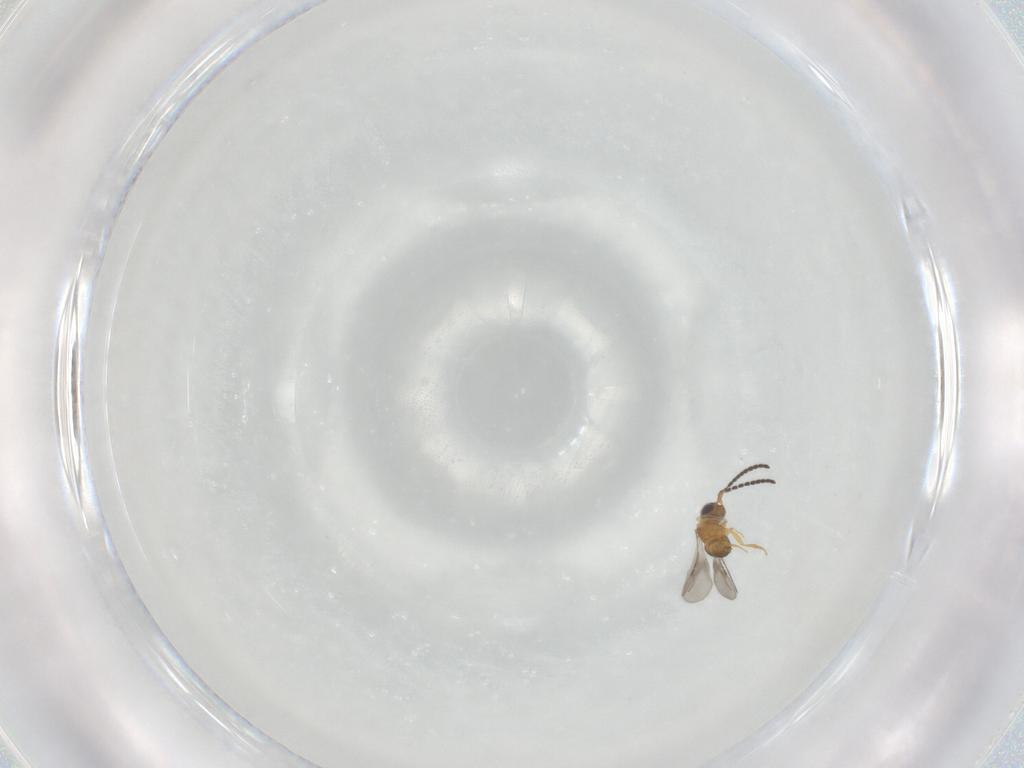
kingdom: Animalia
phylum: Arthropoda
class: Insecta
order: Hymenoptera
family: Ceraphronidae
